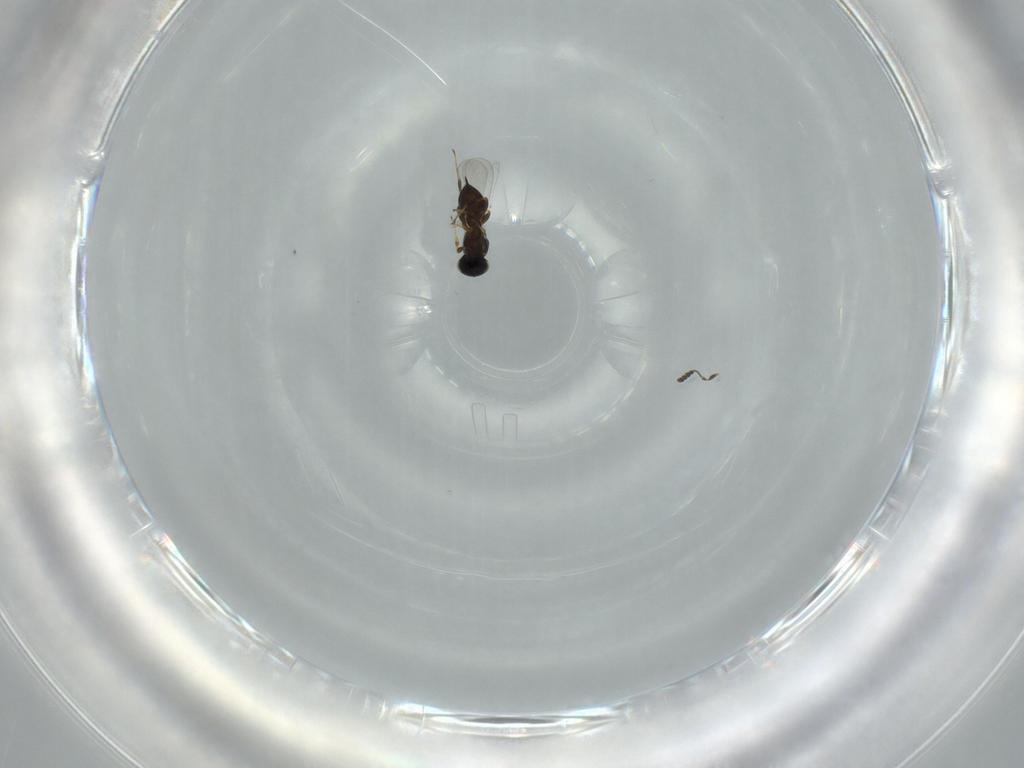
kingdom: Animalia
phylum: Arthropoda
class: Insecta
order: Hymenoptera
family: Platygastridae
